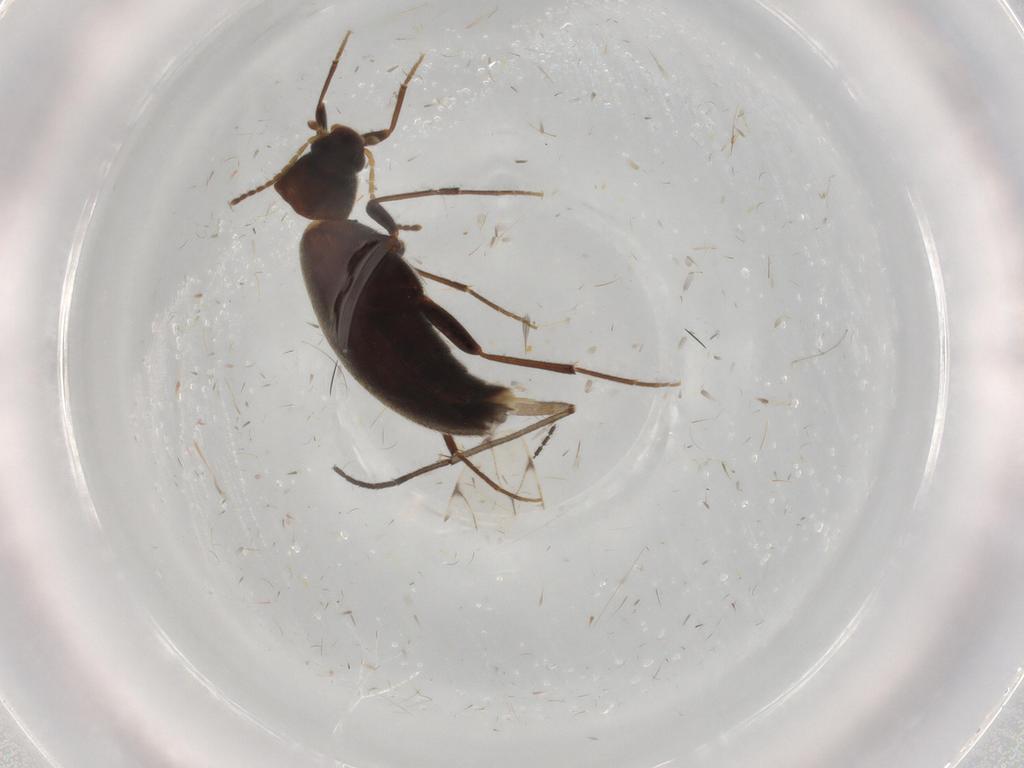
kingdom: Animalia
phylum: Arthropoda
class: Insecta
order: Coleoptera
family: Melandryidae
